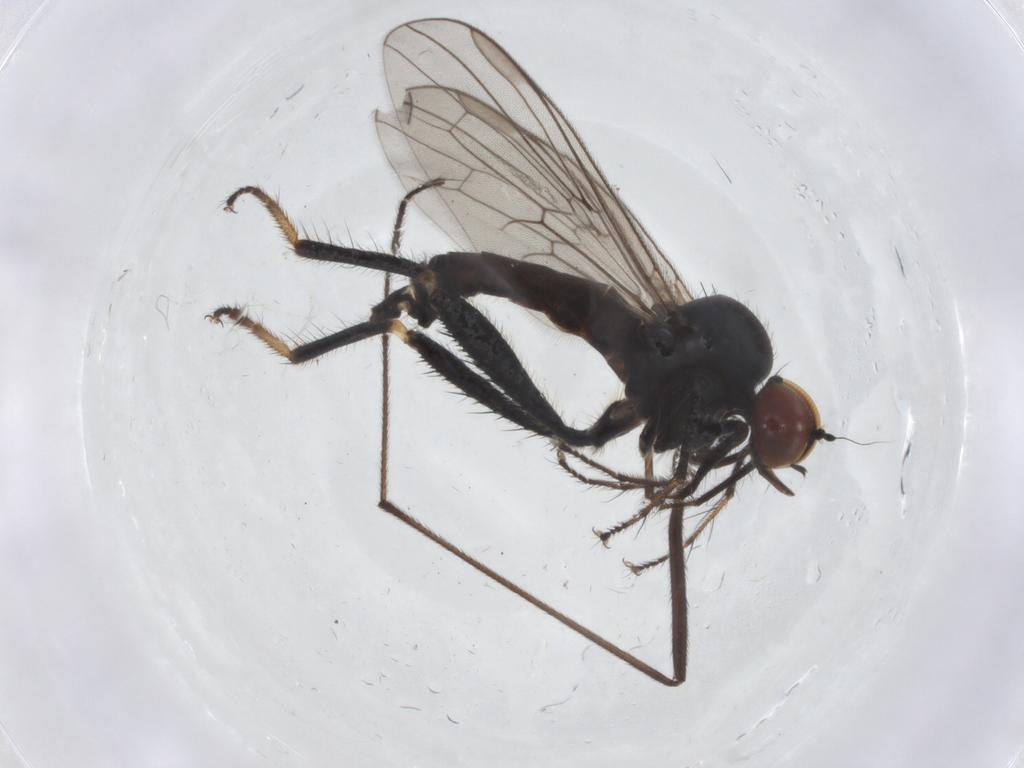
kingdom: Animalia
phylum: Arthropoda
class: Insecta
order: Diptera
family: Hybotidae
